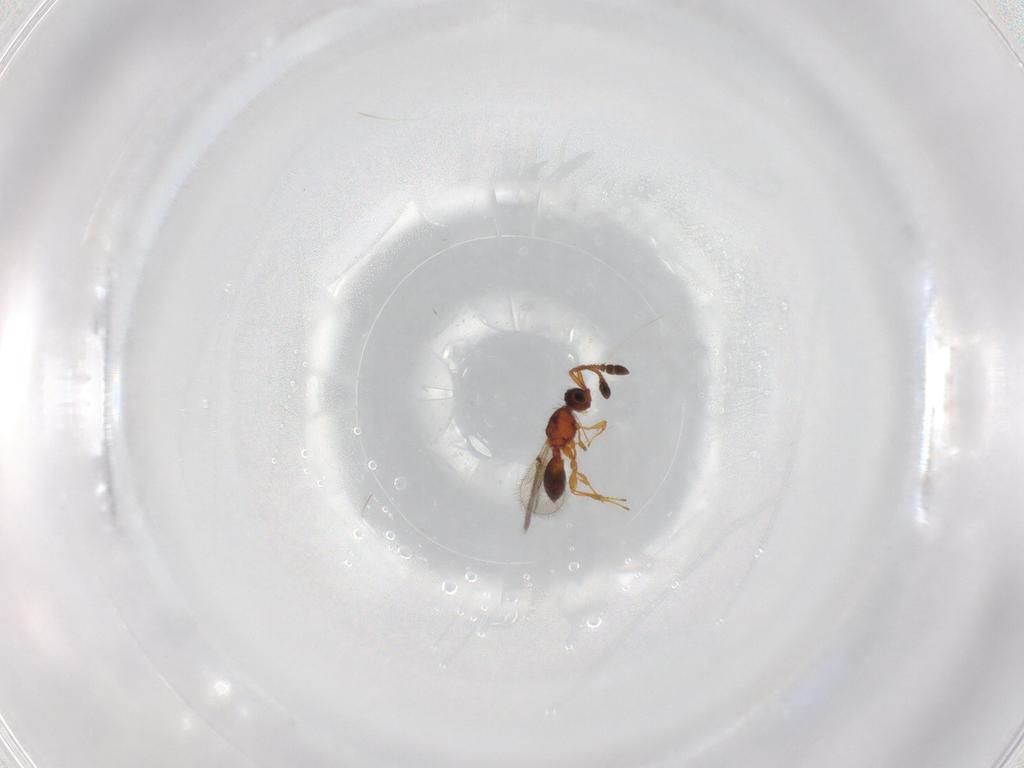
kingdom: Animalia
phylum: Arthropoda
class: Insecta
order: Hymenoptera
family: Diapriidae
